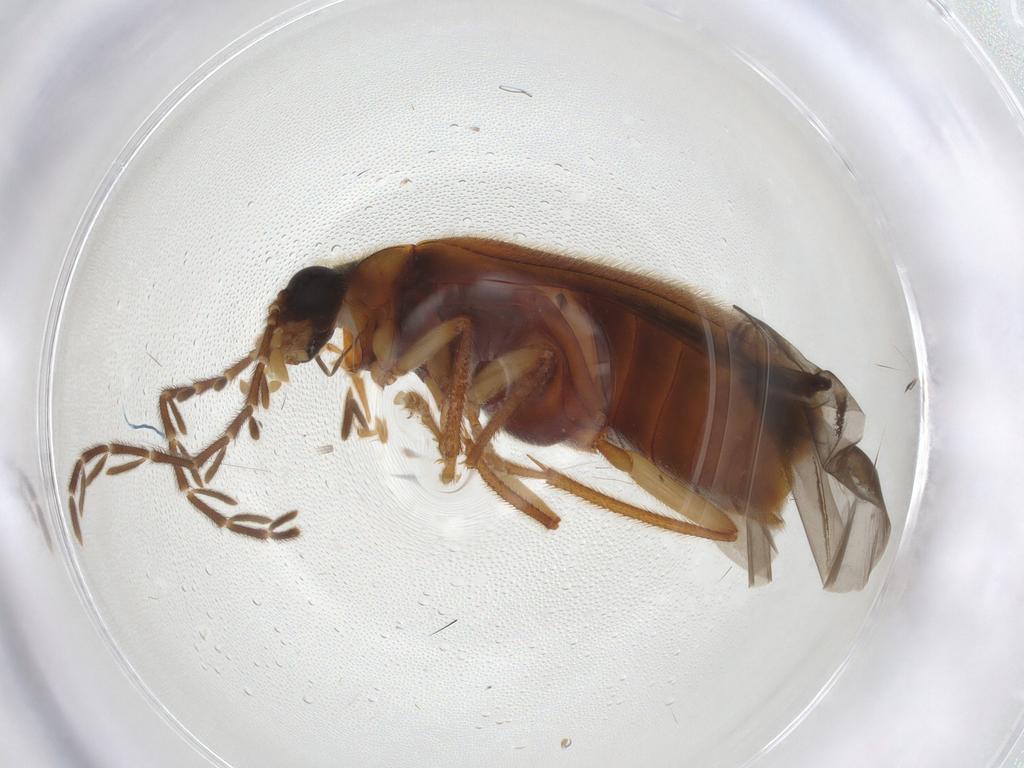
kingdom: Animalia
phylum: Arthropoda
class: Insecta
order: Coleoptera
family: Ptilodactylidae
